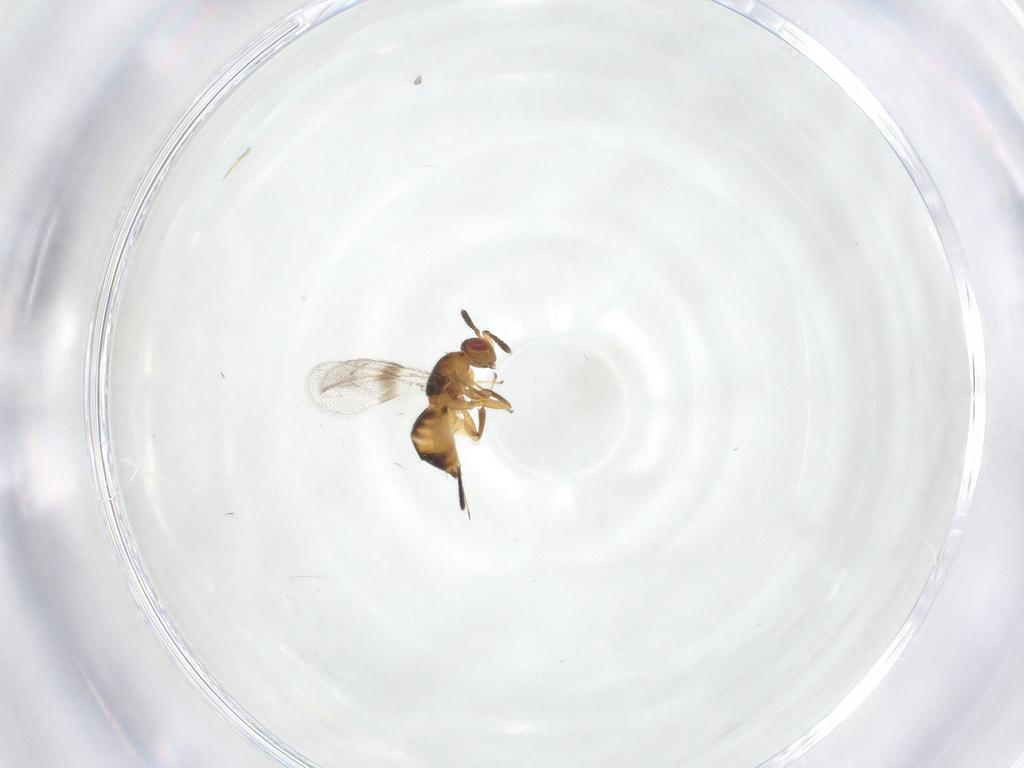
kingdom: Animalia
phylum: Arthropoda
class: Insecta
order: Hymenoptera
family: Torymidae
